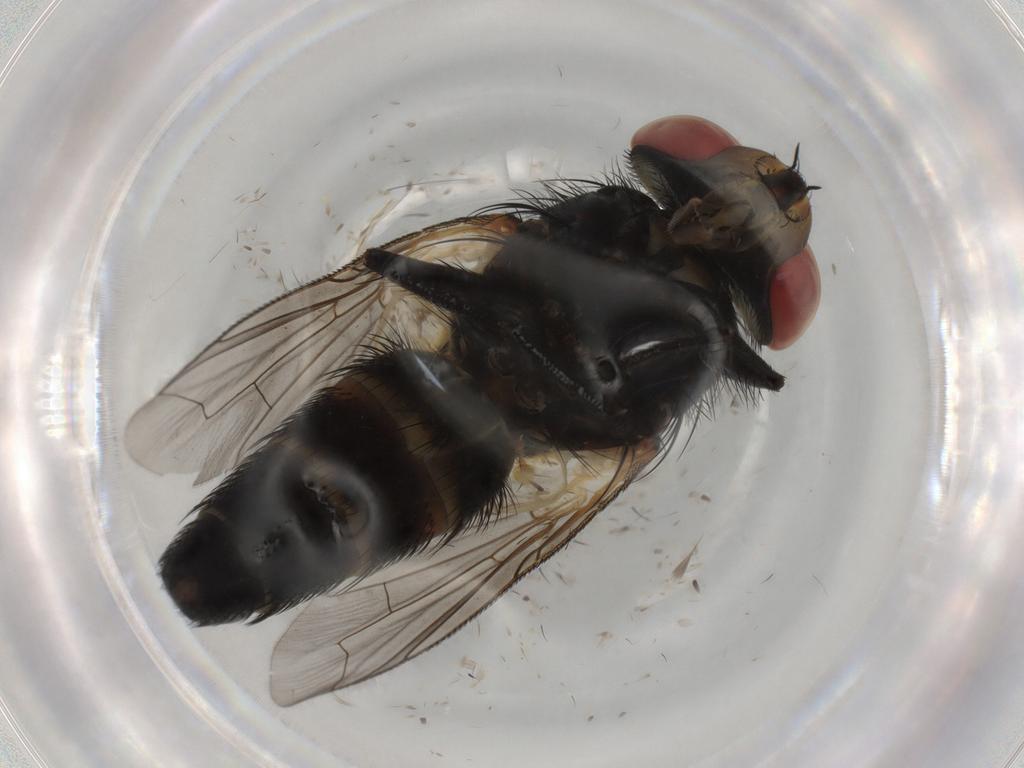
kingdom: Animalia
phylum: Arthropoda
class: Insecta
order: Diptera
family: Anthomyiidae
